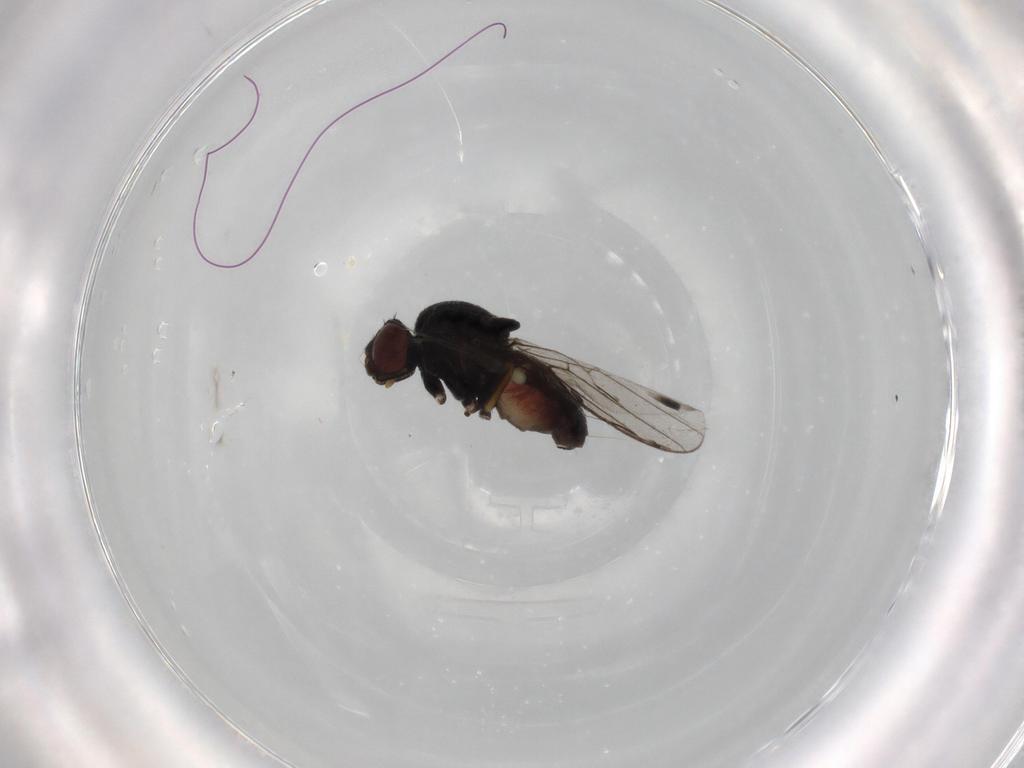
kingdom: Animalia
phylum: Arthropoda
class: Insecta
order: Diptera
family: Chloropidae
